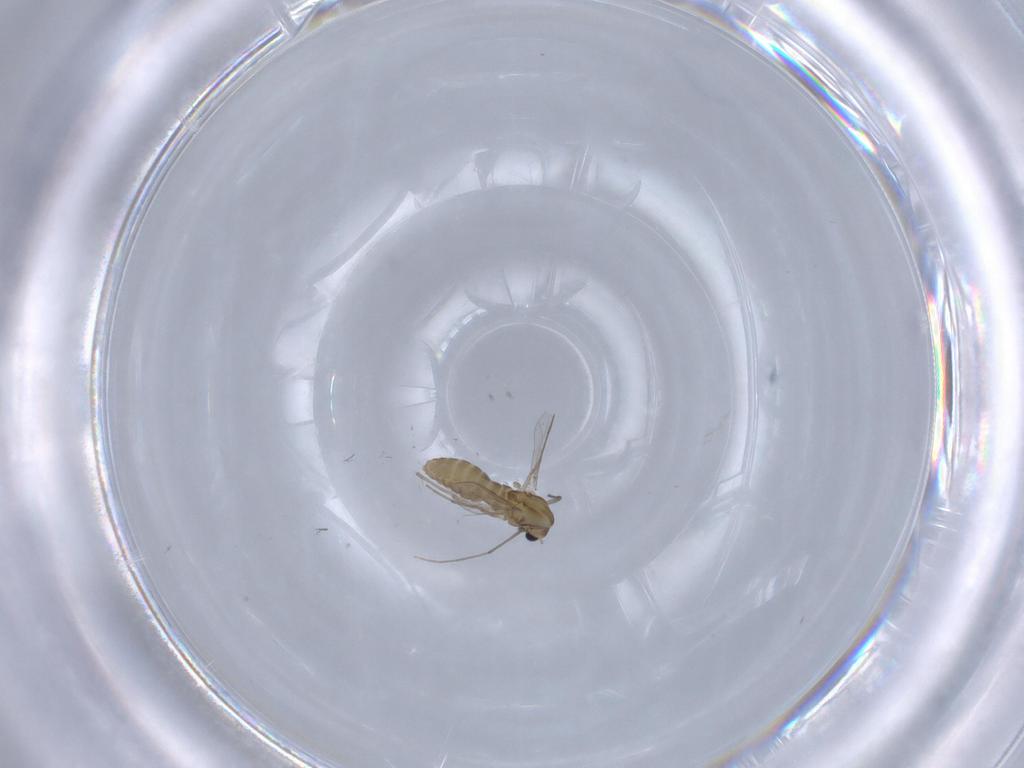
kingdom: Animalia
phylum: Arthropoda
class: Insecta
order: Diptera
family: Chironomidae
